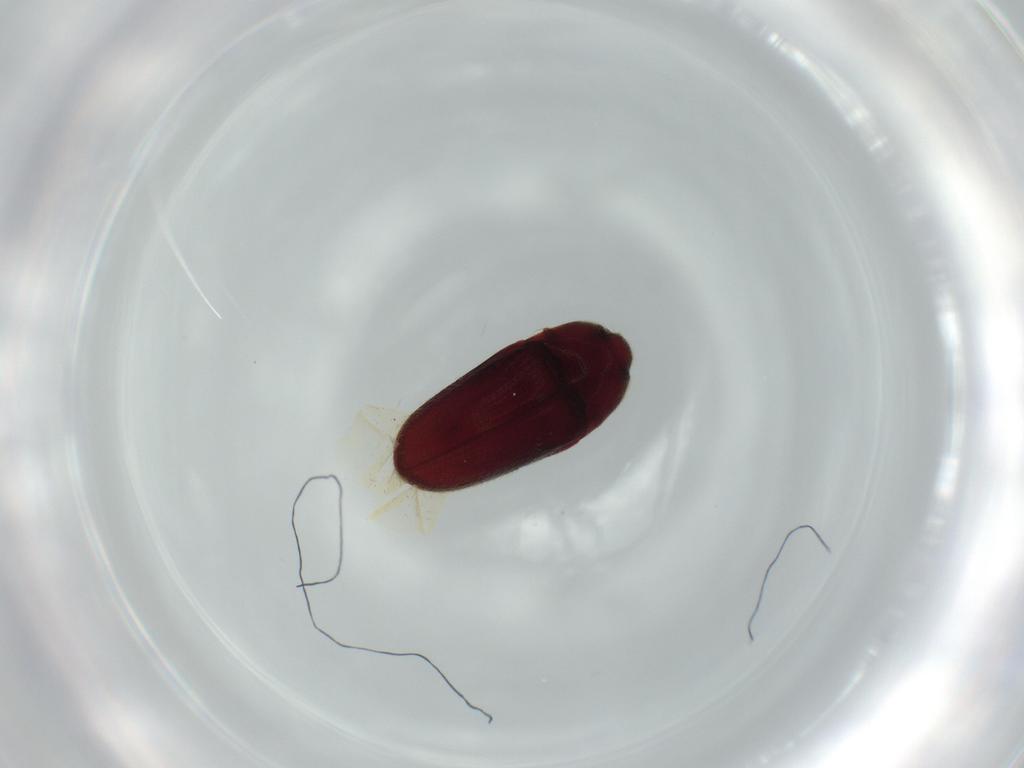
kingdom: Animalia
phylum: Arthropoda
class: Insecta
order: Coleoptera
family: Throscidae
